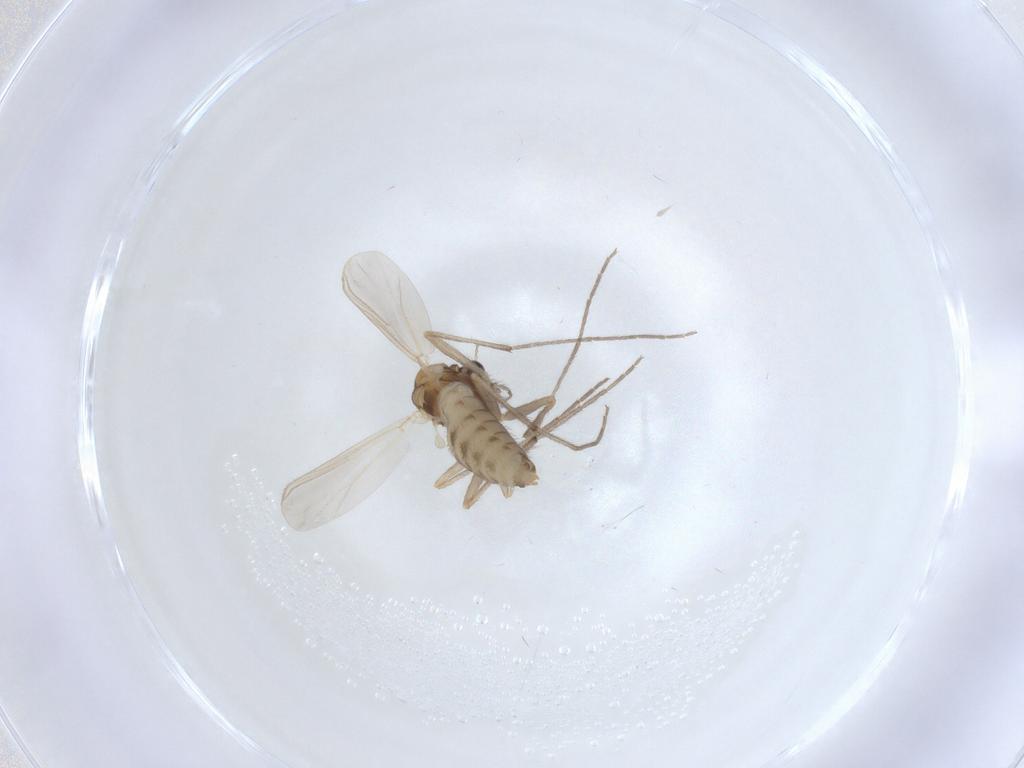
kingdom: Animalia
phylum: Arthropoda
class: Insecta
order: Diptera
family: Chironomidae
